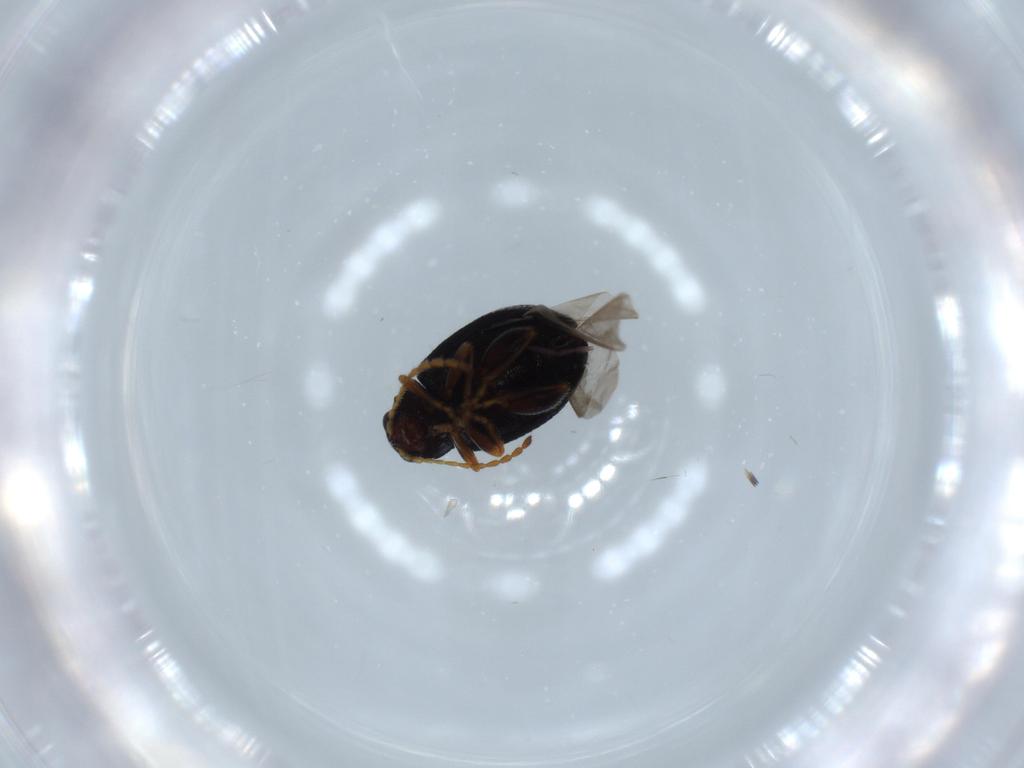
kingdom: Animalia
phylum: Arthropoda
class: Insecta
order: Coleoptera
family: Chrysomelidae
